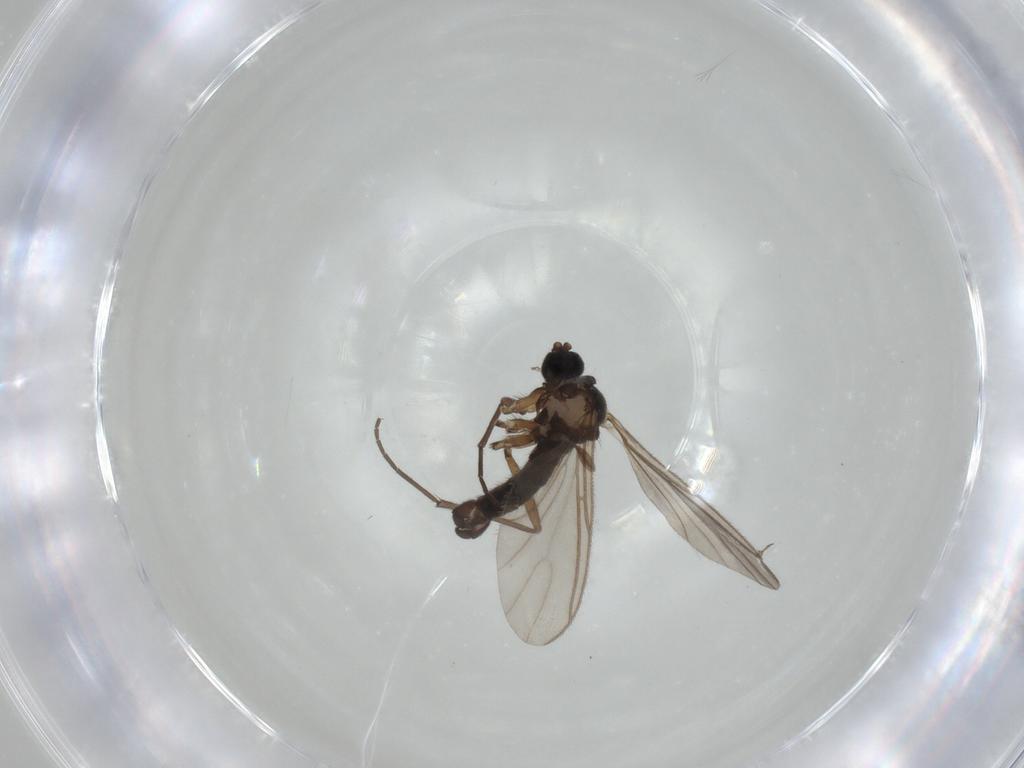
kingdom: Animalia
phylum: Arthropoda
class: Insecta
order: Diptera
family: Sciaridae
